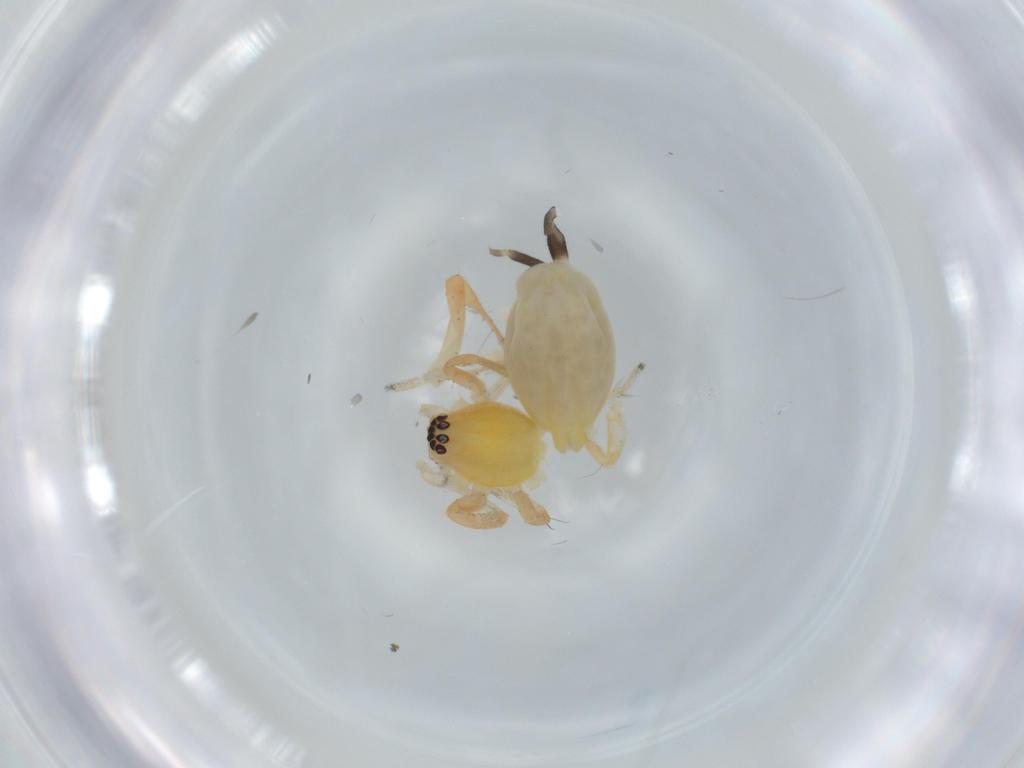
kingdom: Animalia
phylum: Arthropoda
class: Arachnida
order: Araneae
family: Anyphaenidae
